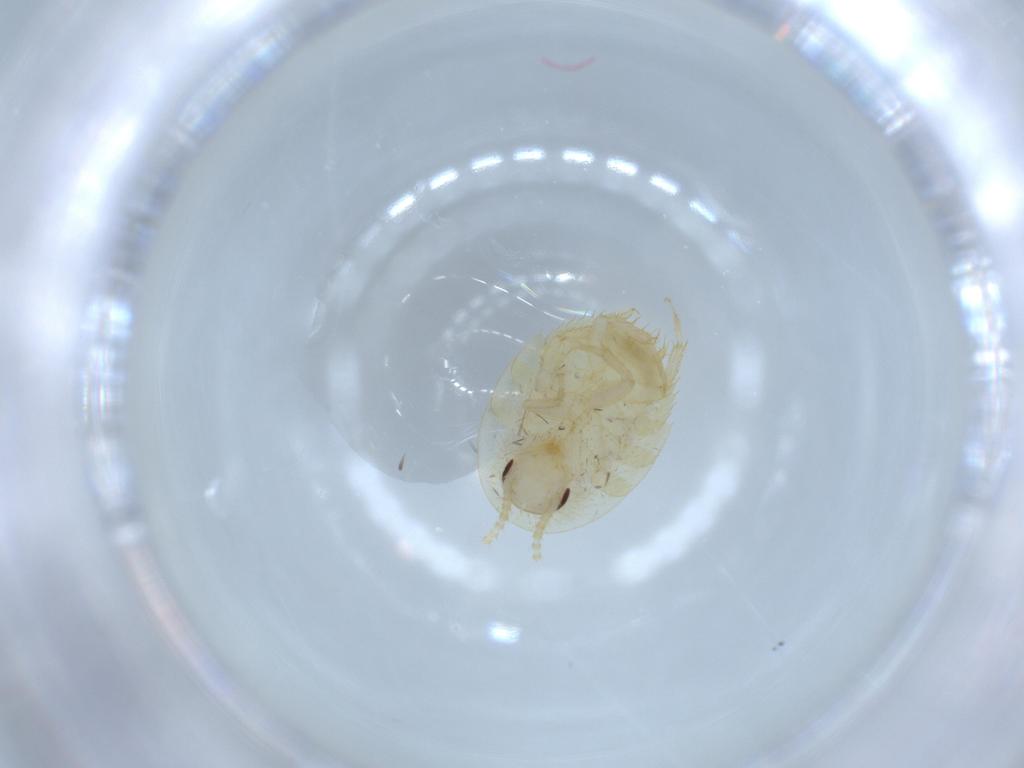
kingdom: Animalia
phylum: Arthropoda
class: Insecta
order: Blattodea
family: Ectobiidae
